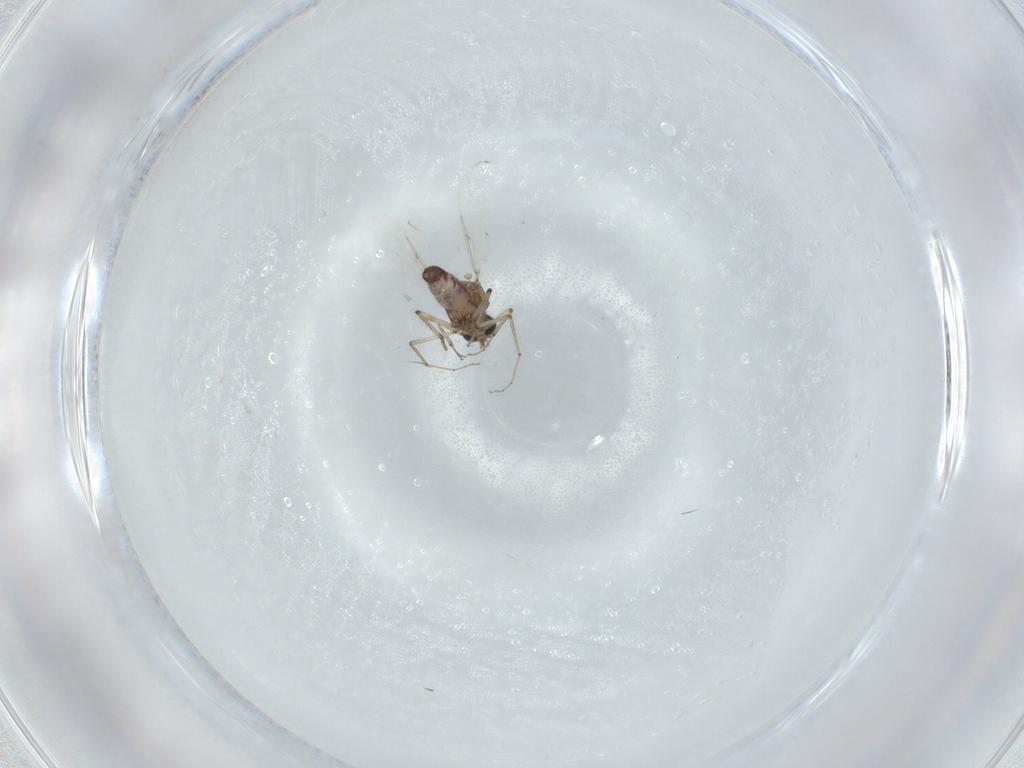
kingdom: Animalia
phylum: Arthropoda
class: Insecta
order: Diptera
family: Ceratopogonidae
